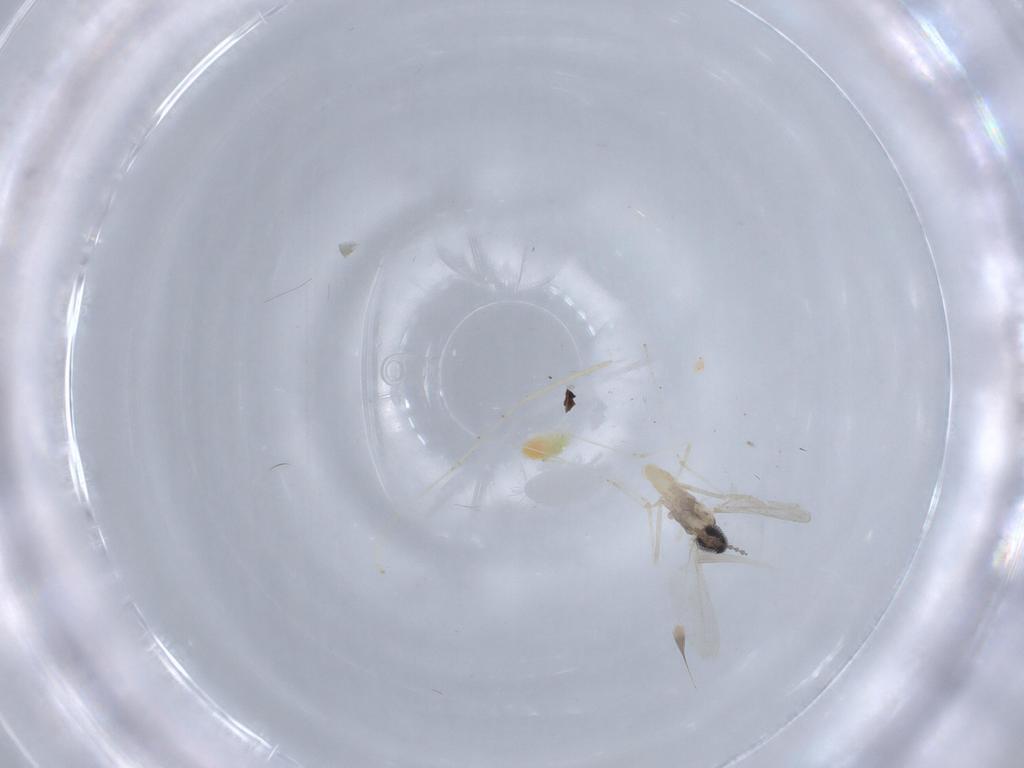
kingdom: Animalia
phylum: Arthropoda
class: Insecta
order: Diptera
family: Cecidomyiidae
